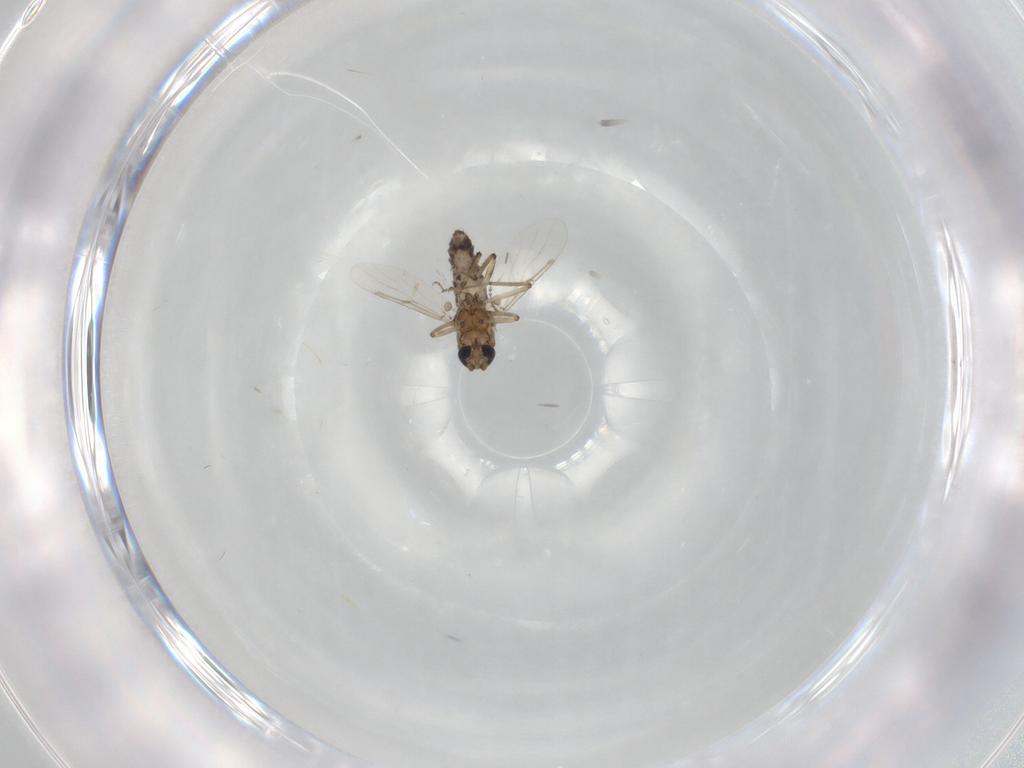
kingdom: Animalia
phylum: Arthropoda
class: Insecta
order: Diptera
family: Ceratopogonidae
